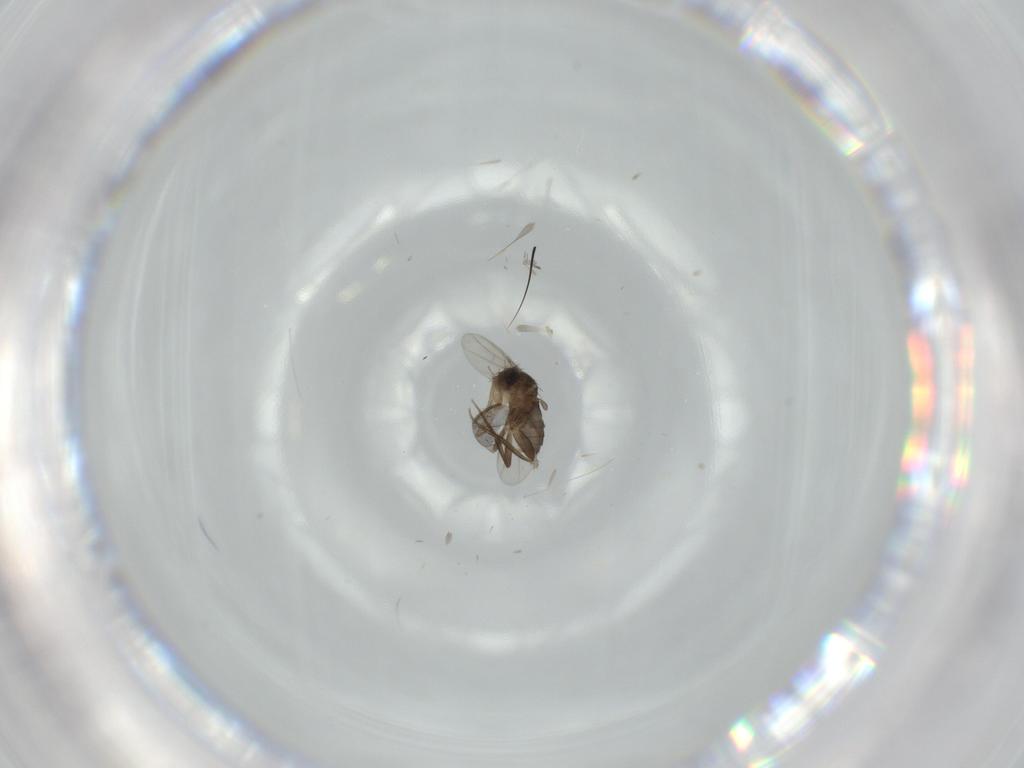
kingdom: Animalia
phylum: Arthropoda
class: Insecta
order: Diptera
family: Phoridae
